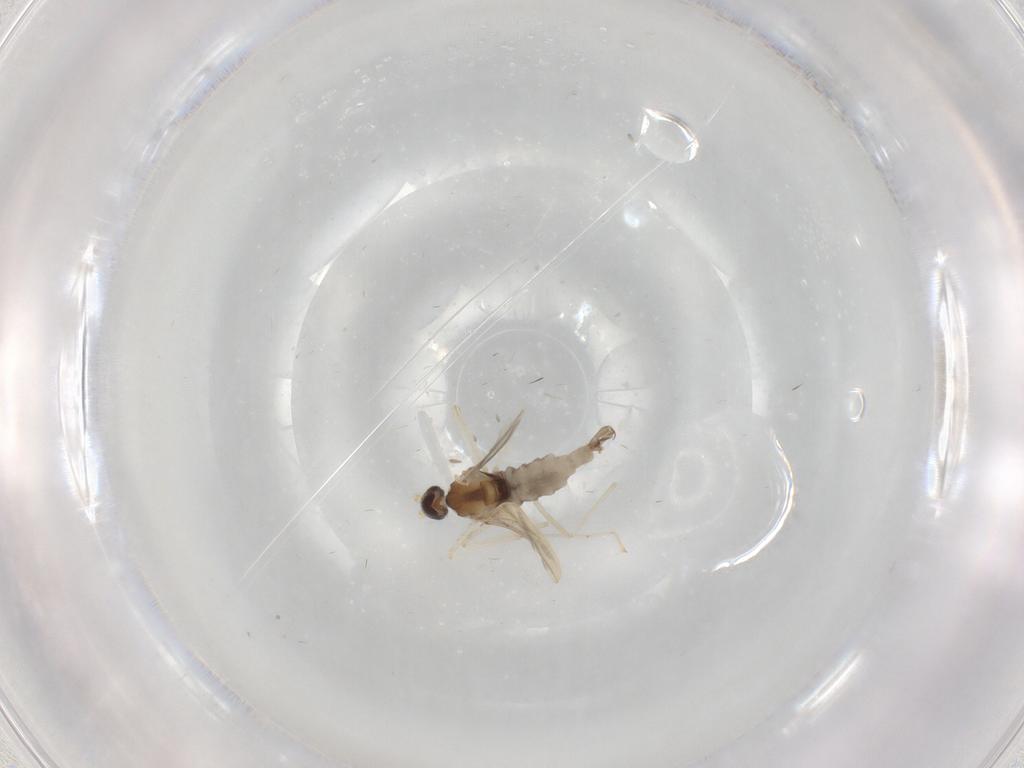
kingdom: Animalia
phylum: Arthropoda
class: Insecta
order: Diptera
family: Cecidomyiidae
